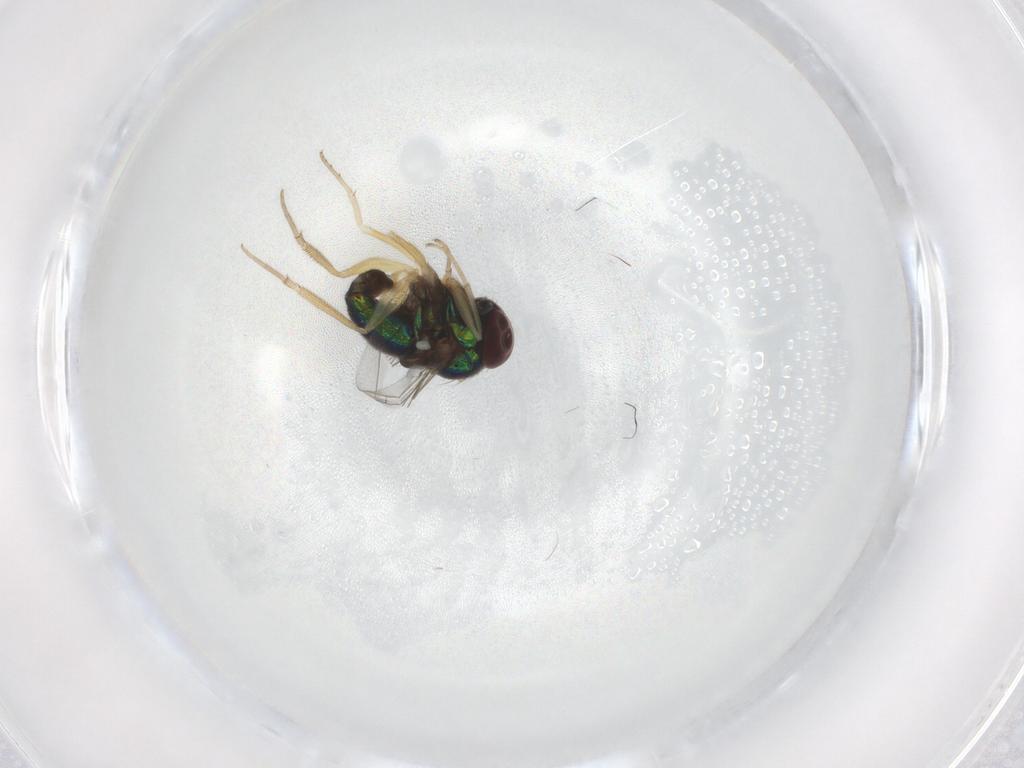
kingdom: Animalia
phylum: Arthropoda
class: Insecta
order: Diptera
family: Dolichopodidae
